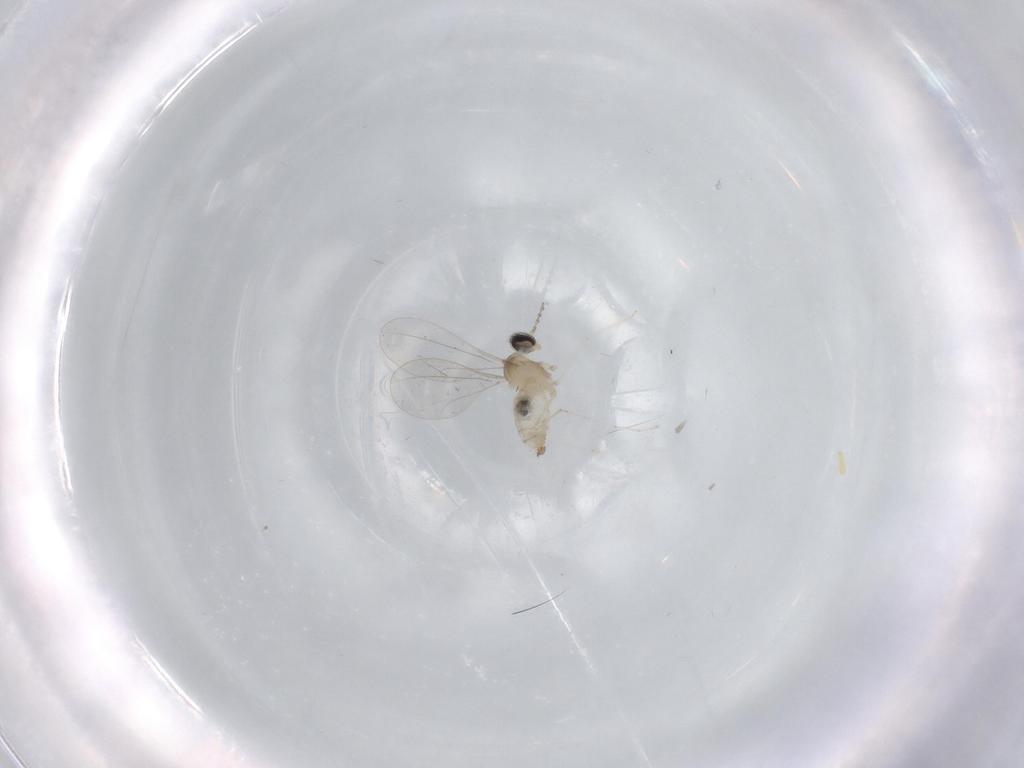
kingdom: Animalia
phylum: Arthropoda
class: Insecta
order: Diptera
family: Cecidomyiidae
